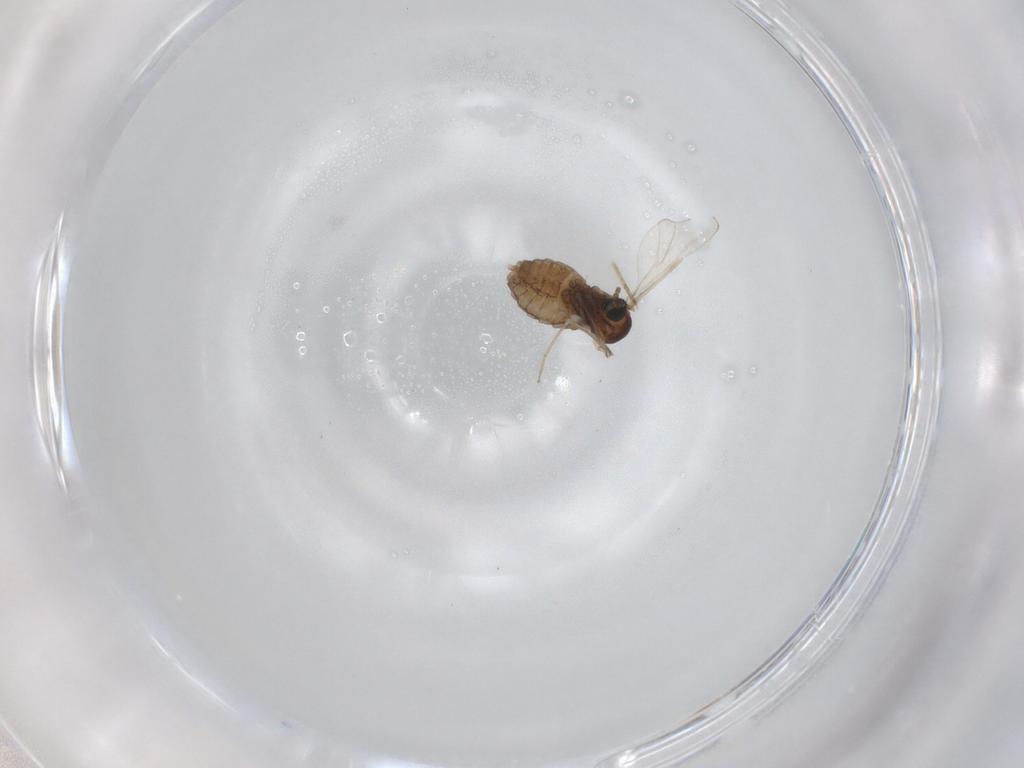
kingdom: Animalia
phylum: Arthropoda
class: Insecta
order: Diptera
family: Cecidomyiidae
